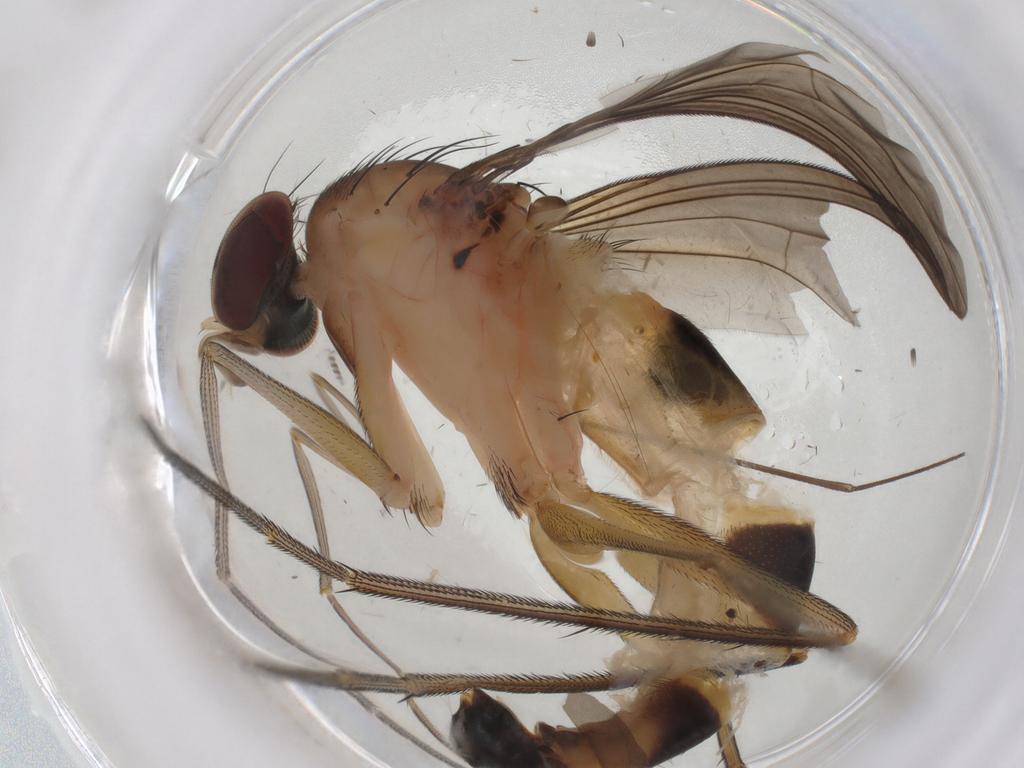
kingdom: Animalia
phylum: Arthropoda
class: Insecta
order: Diptera
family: Dolichopodidae
